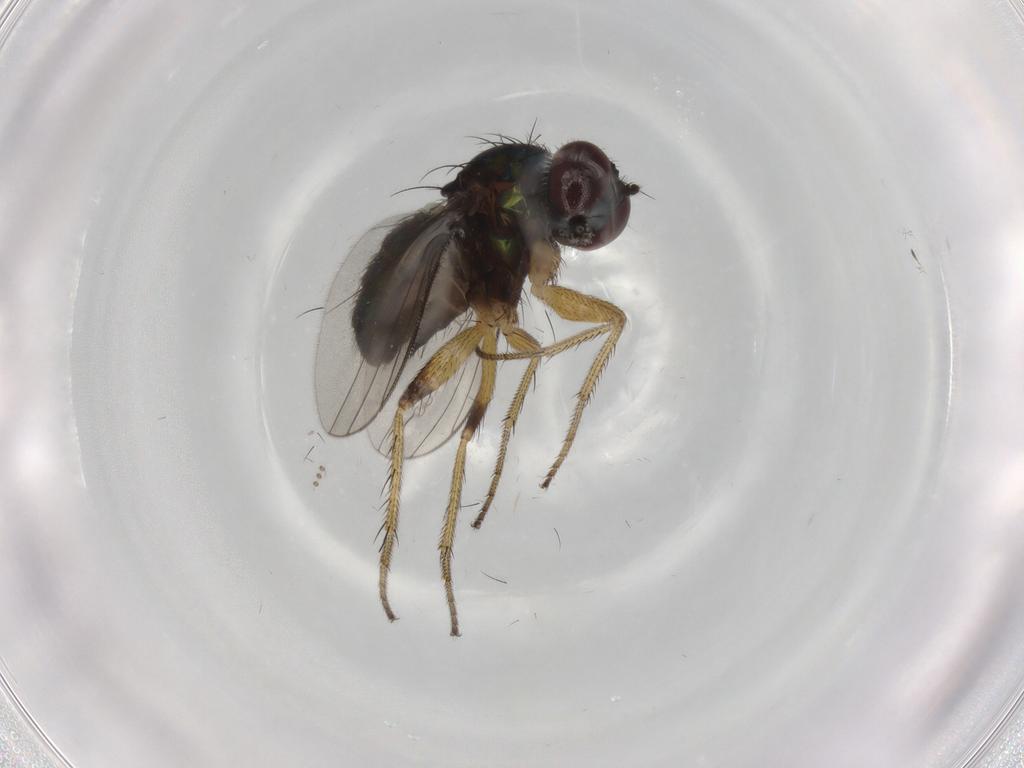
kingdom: Animalia
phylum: Arthropoda
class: Insecta
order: Diptera
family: Dolichopodidae
